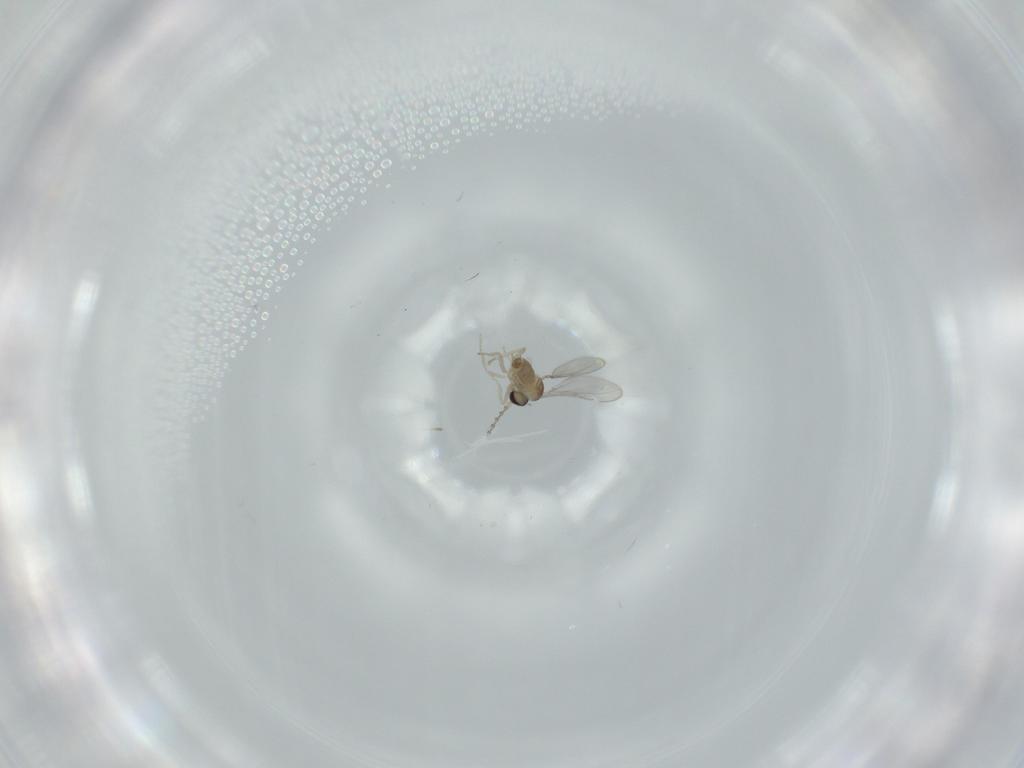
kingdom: Animalia
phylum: Arthropoda
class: Insecta
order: Diptera
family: Cecidomyiidae
